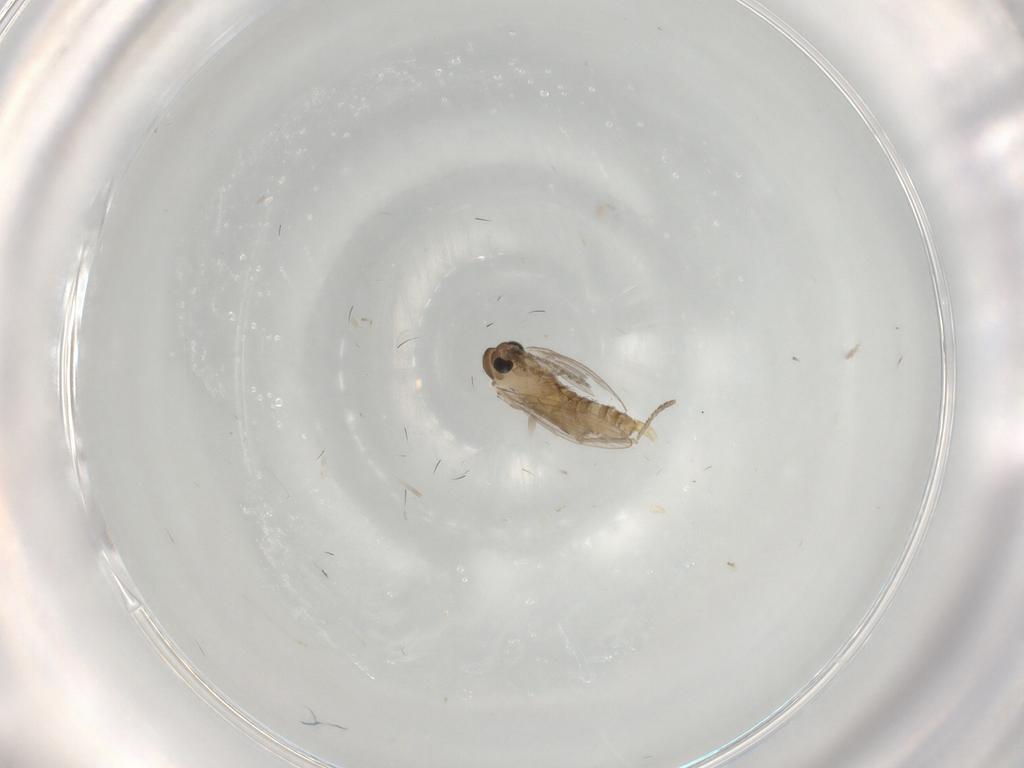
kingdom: Animalia
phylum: Arthropoda
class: Insecta
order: Diptera
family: Psychodidae
